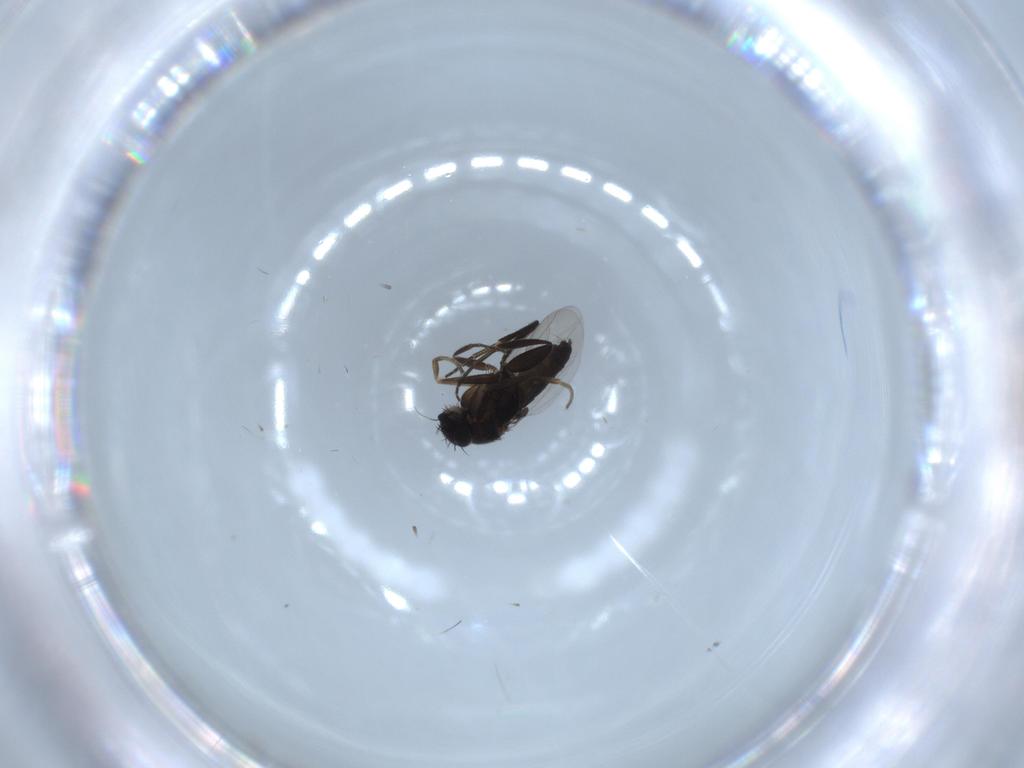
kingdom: Animalia
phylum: Arthropoda
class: Insecta
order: Diptera
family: Phoridae
